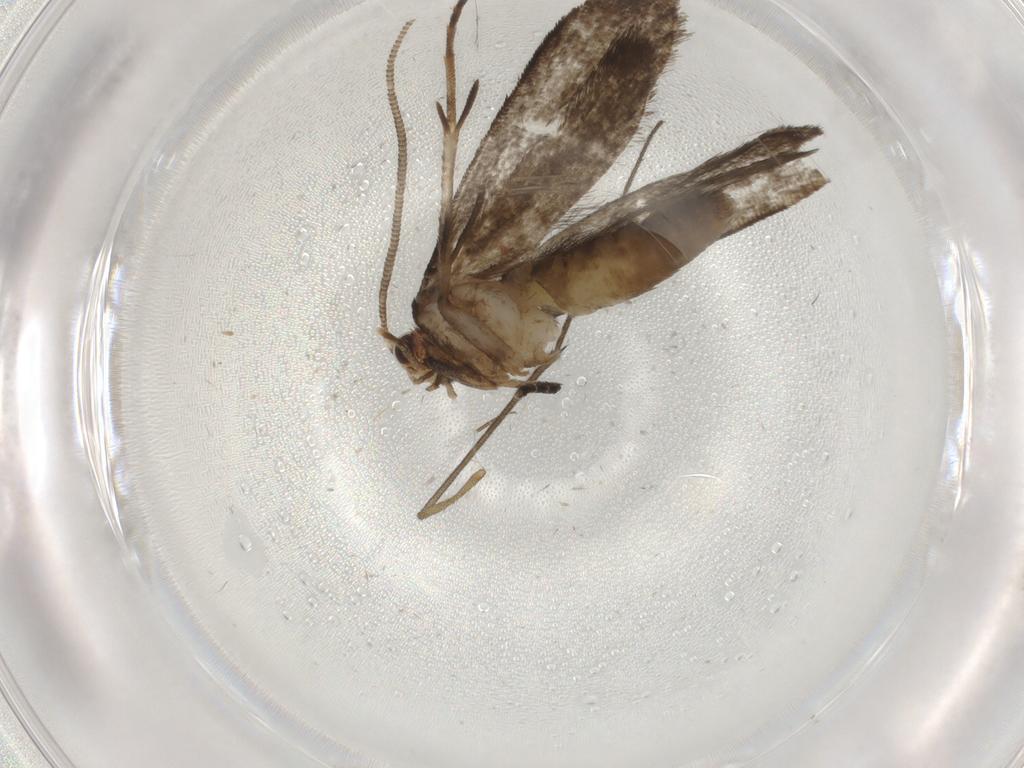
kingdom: Animalia
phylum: Arthropoda
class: Insecta
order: Lepidoptera
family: Tineidae
